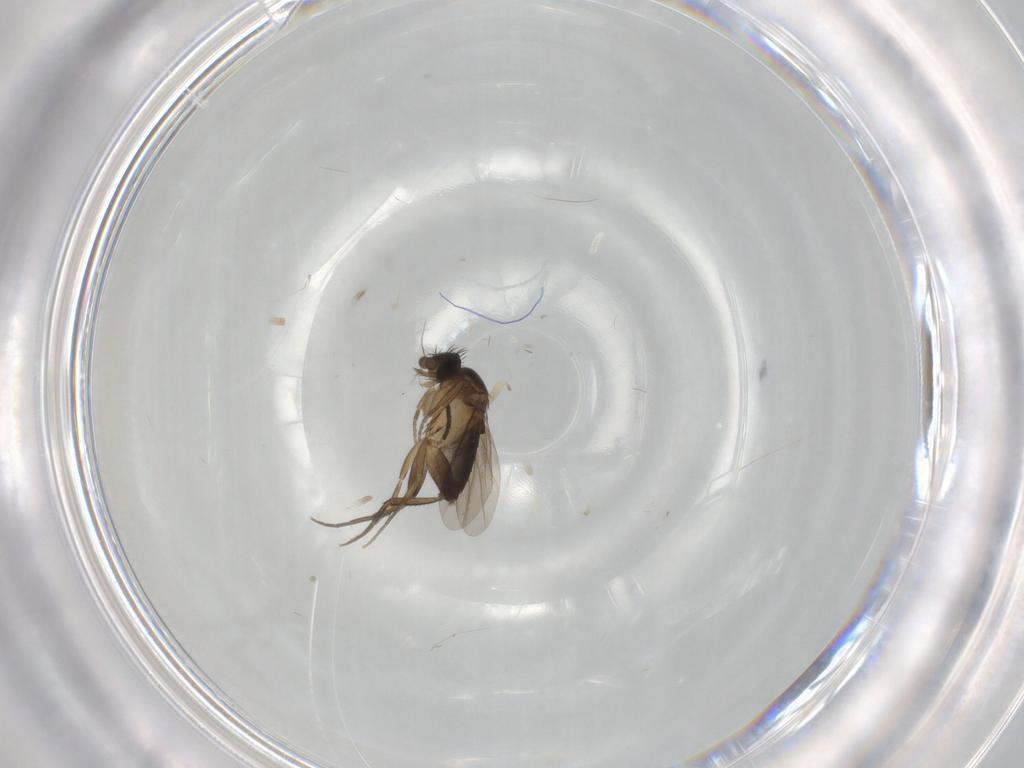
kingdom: Animalia
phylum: Arthropoda
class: Insecta
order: Diptera
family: Phoridae
